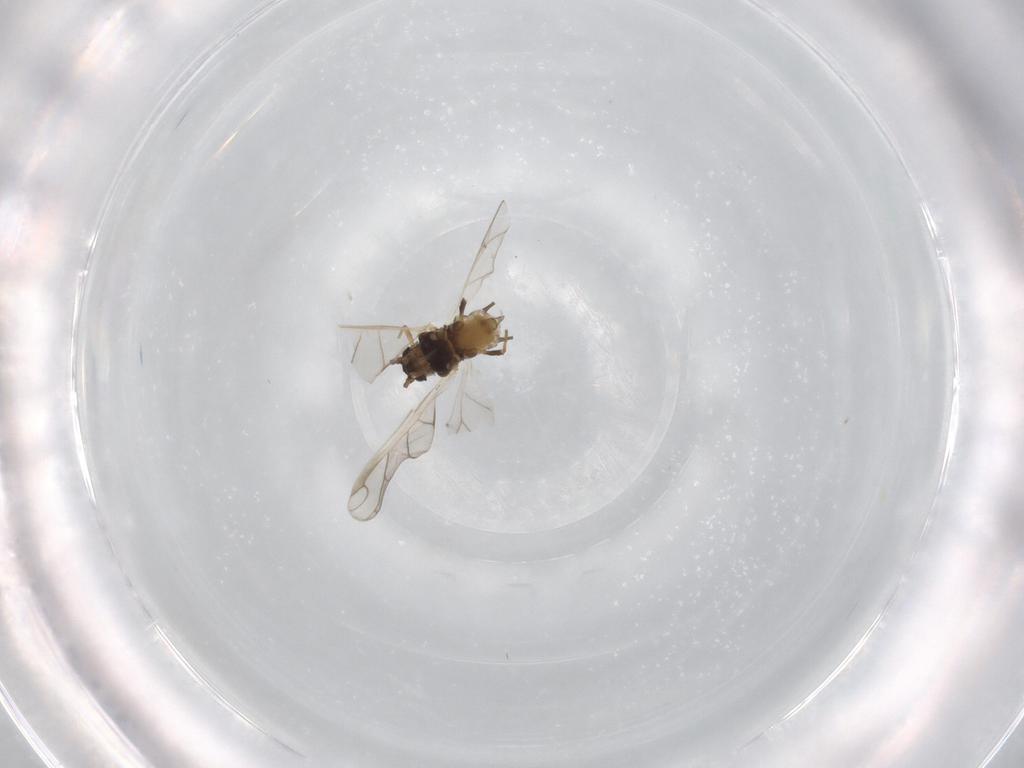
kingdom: Animalia
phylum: Arthropoda
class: Insecta
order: Hemiptera
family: Aphididae
